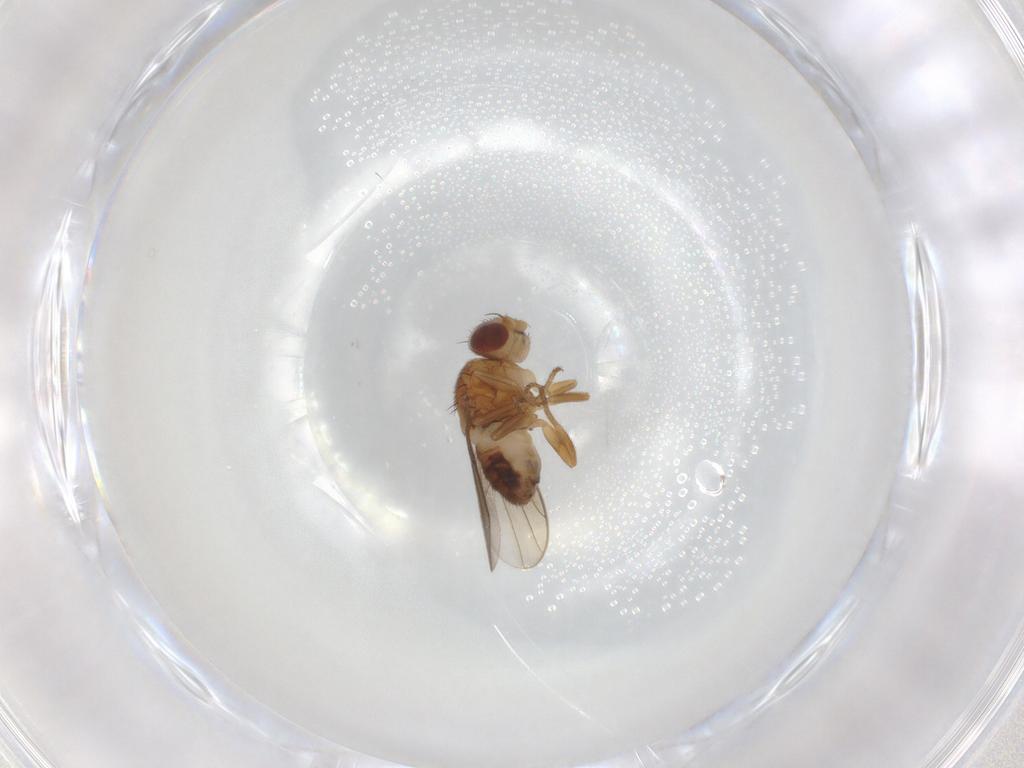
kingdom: Animalia
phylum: Arthropoda
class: Insecta
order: Diptera
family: Chloropidae
